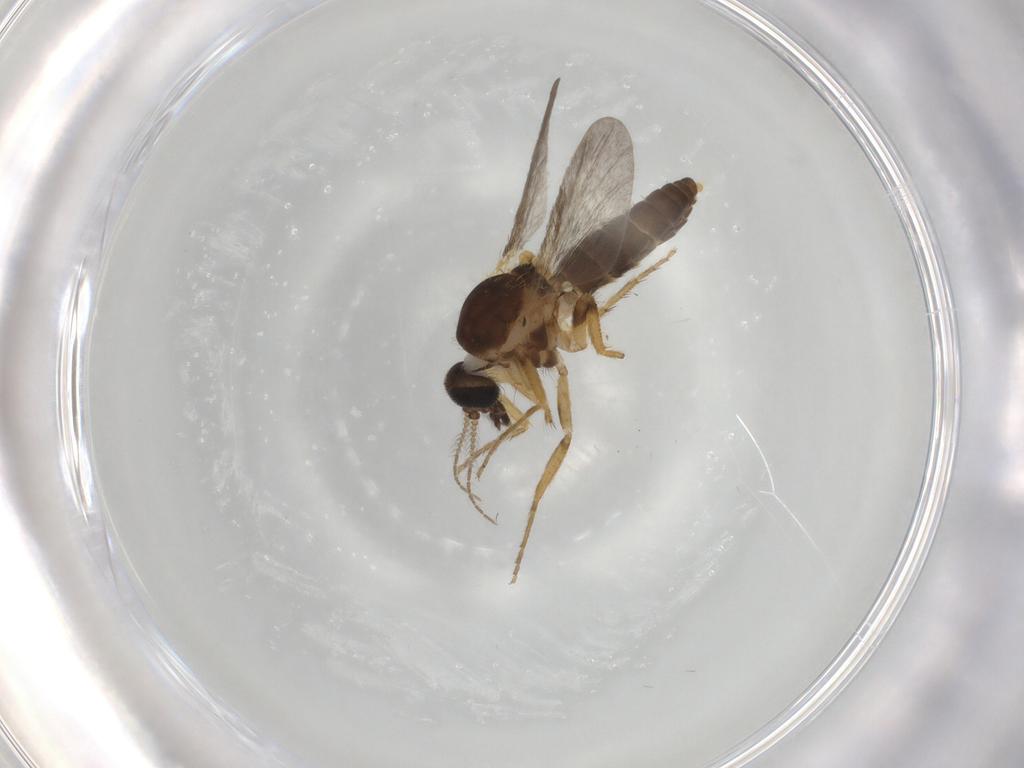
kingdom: Animalia
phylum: Arthropoda
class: Insecta
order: Diptera
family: Ceratopogonidae
